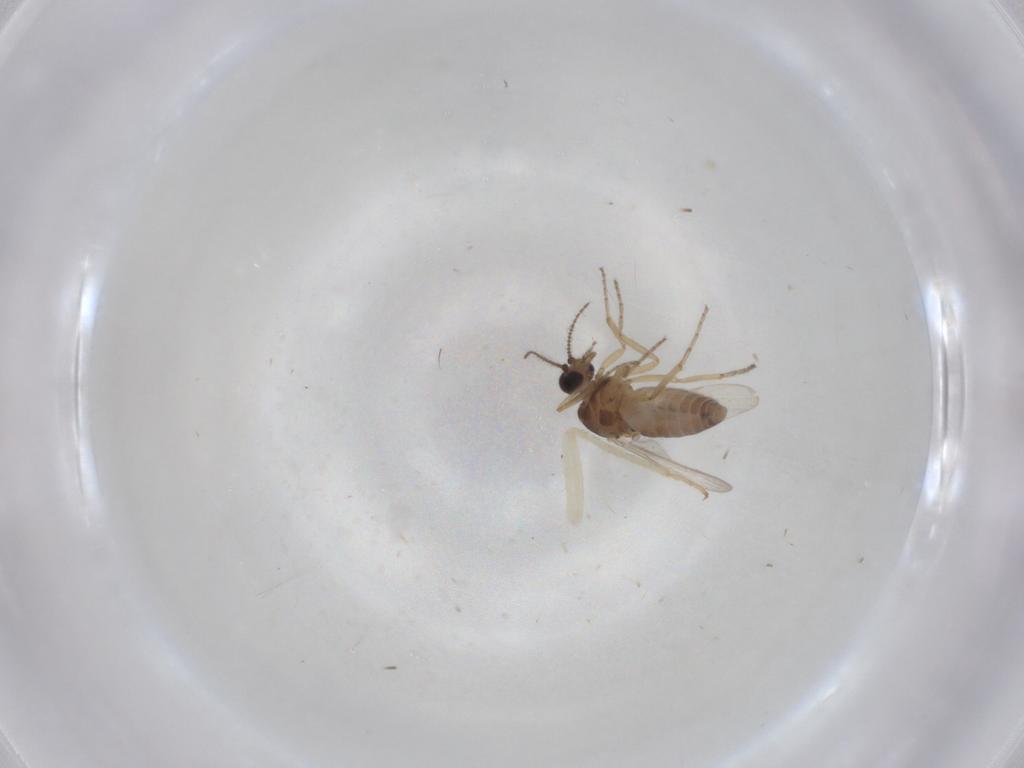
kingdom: Animalia
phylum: Arthropoda
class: Insecta
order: Diptera
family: Ceratopogonidae
